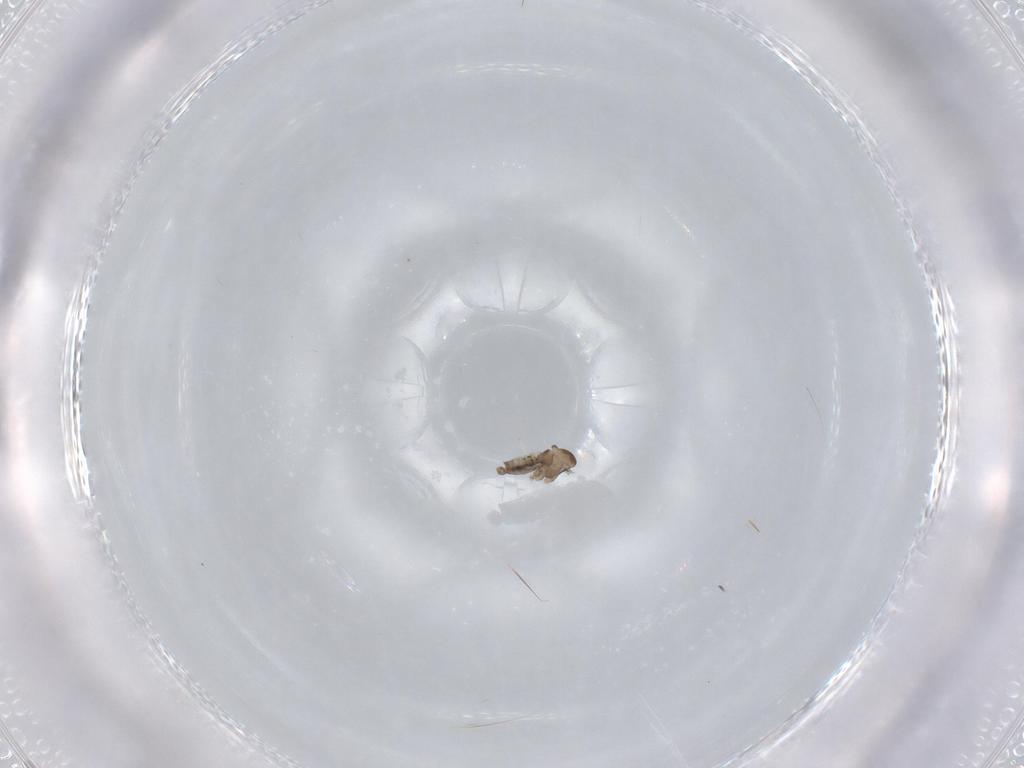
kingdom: Animalia
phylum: Arthropoda
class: Insecta
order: Diptera
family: Cecidomyiidae
